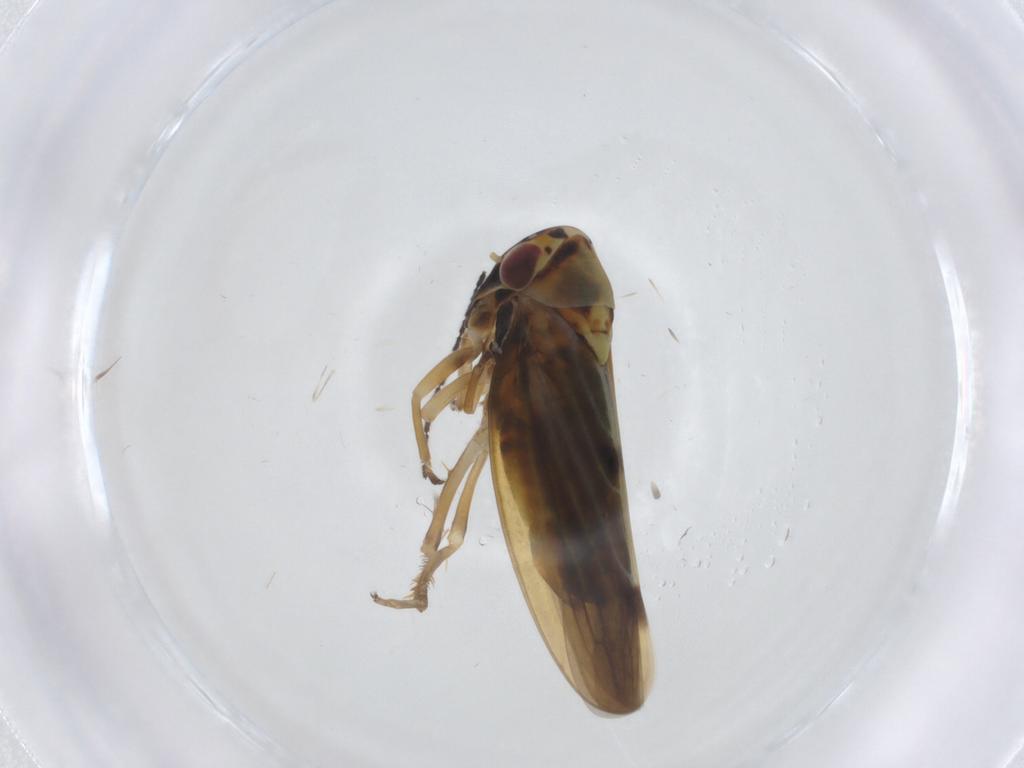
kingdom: Animalia
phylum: Arthropoda
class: Insecta
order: Hemiptera
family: Cicadellidae
